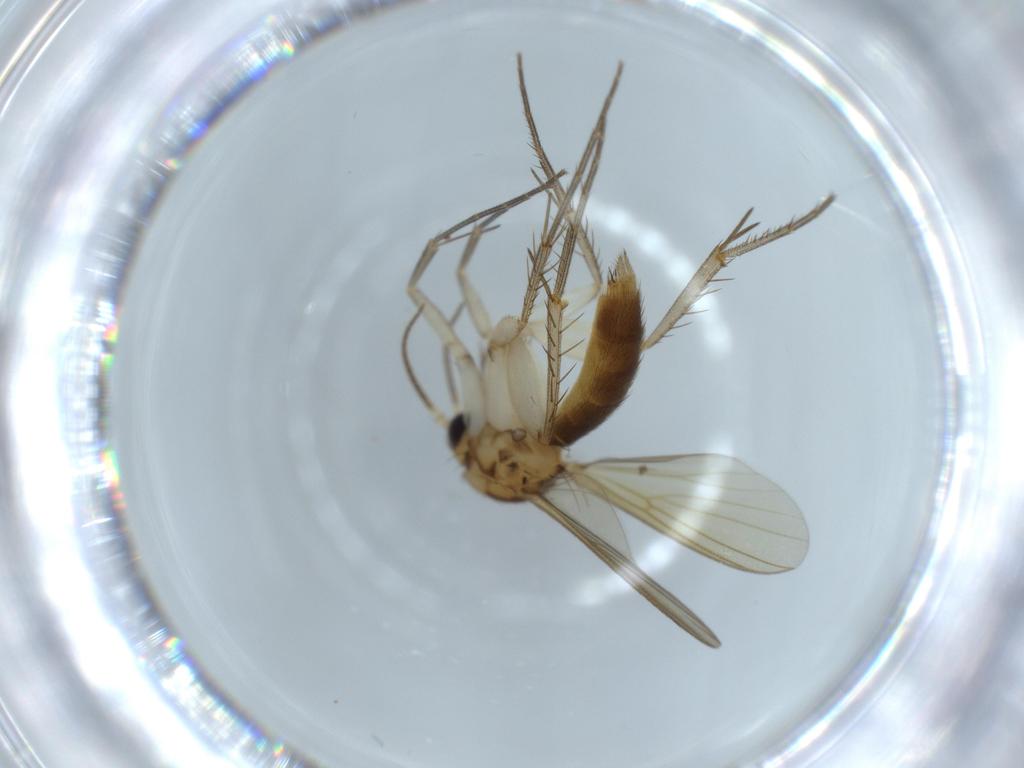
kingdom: Animalia
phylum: Arthropoda
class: Insecta
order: Diptera
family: Mycetophilidae
